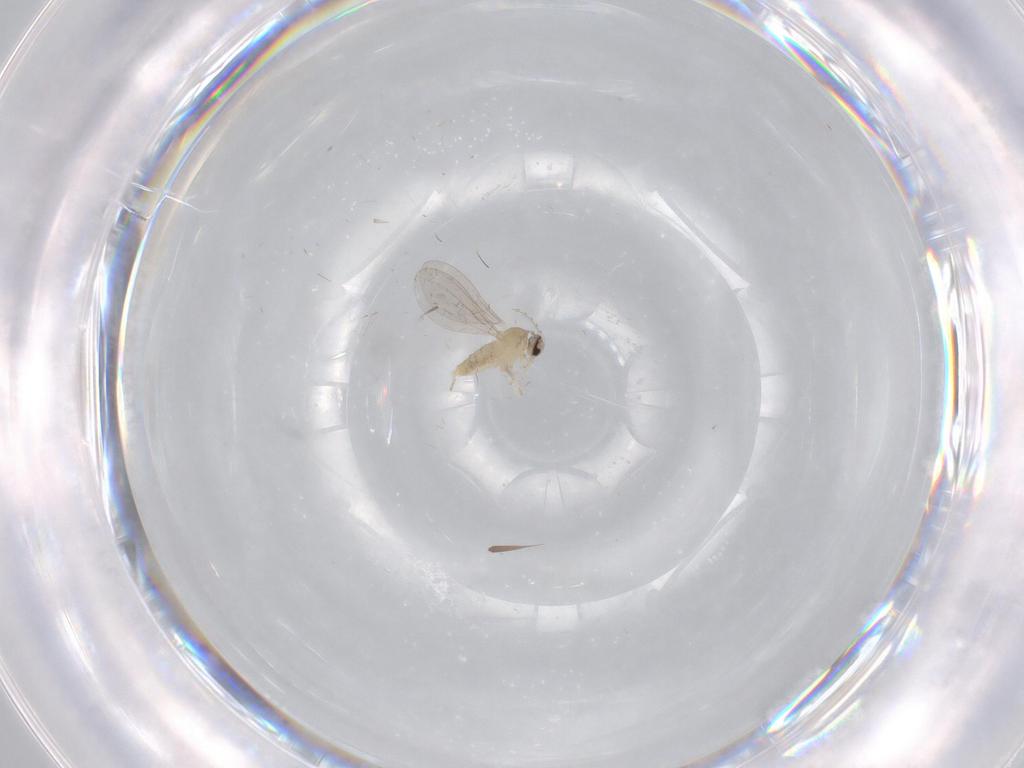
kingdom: Animalia
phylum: Arthropoda
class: Insecta
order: Diptera
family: Cecidomyiidae
